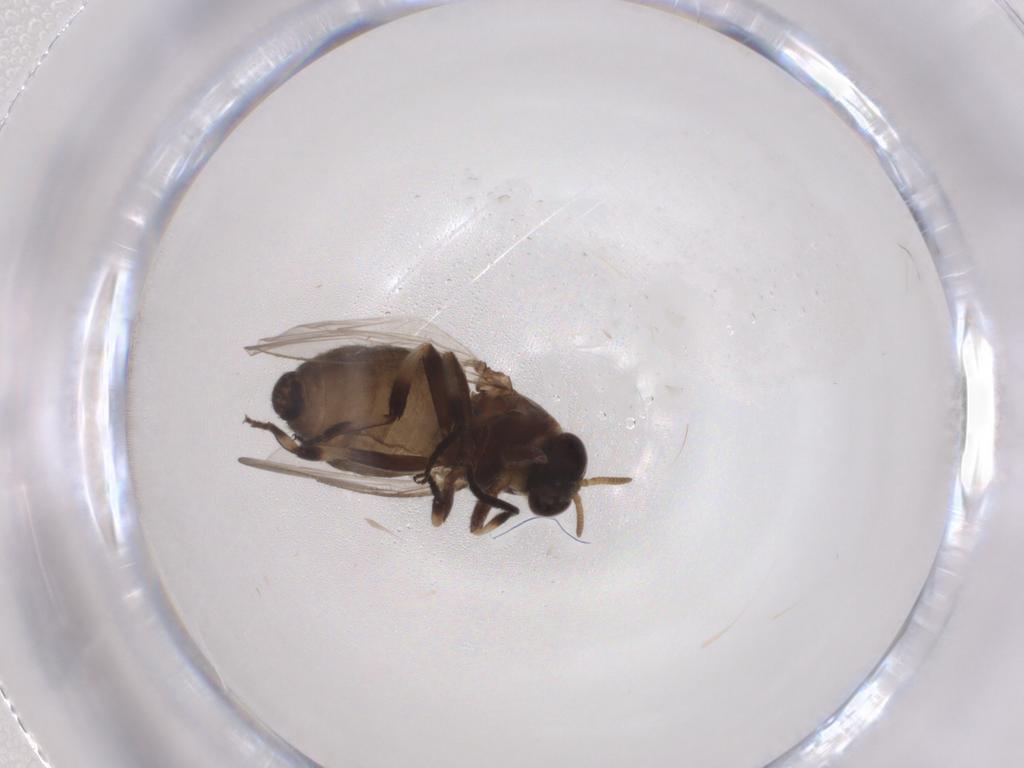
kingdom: Animalia
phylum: Arthropoda
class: Insecta
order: Diptera
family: Simuliidae
